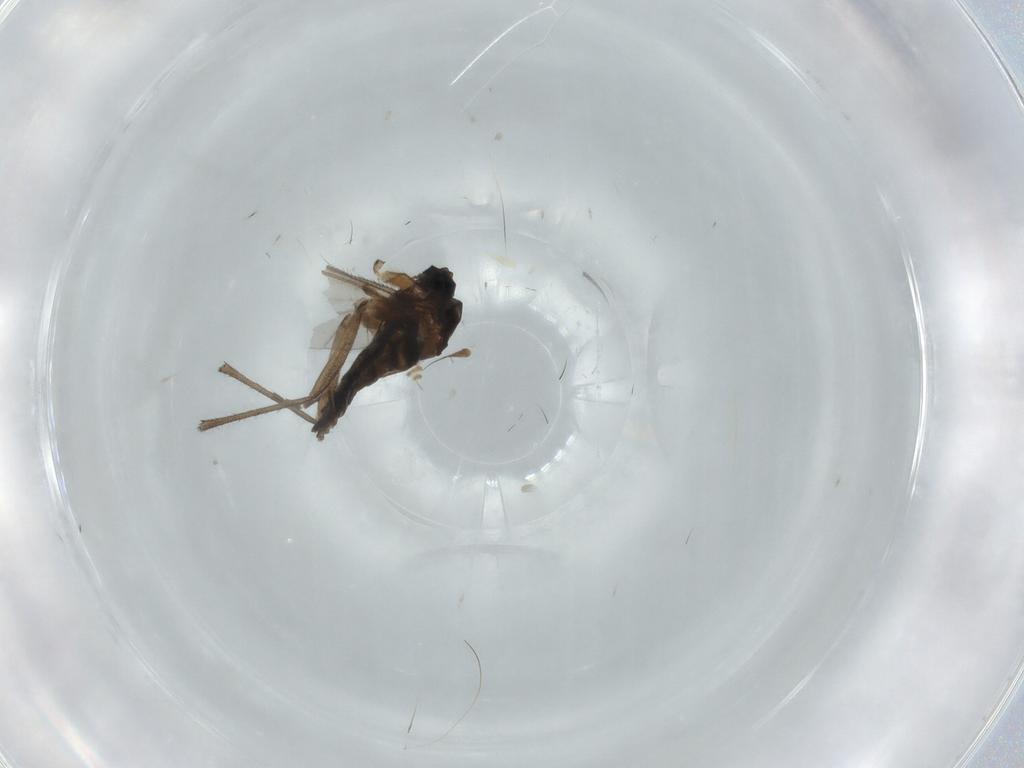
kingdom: Animalia
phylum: Arthropoda
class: Insecta
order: Diptera
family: Sciaridae
